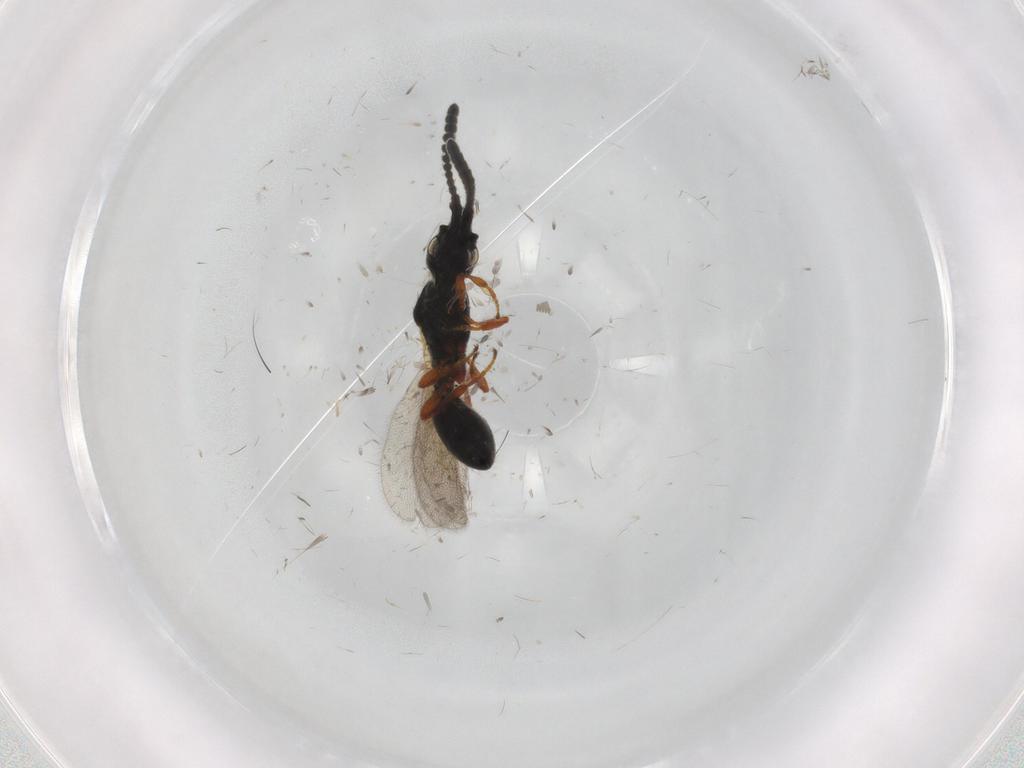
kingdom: Animalia
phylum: Arthropoda
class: Insecta
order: Hymenoptera
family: Diapriidae
